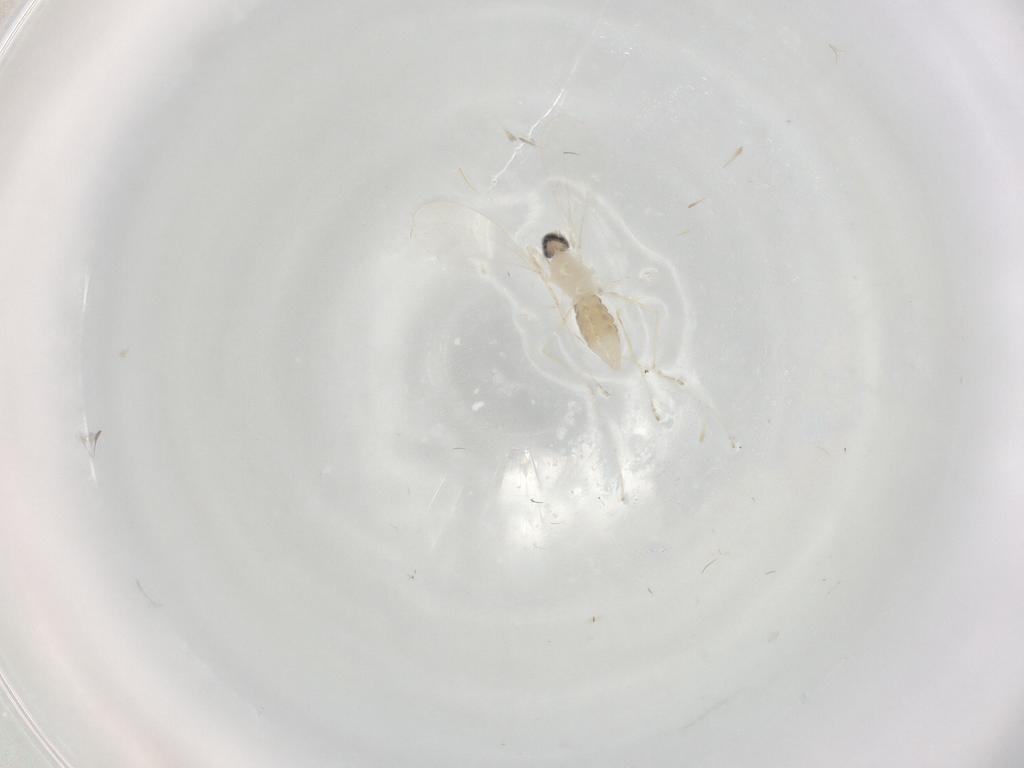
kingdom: Animalia
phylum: Arthropoda
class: Insecta
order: Diptera
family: Cecidomyiidae
